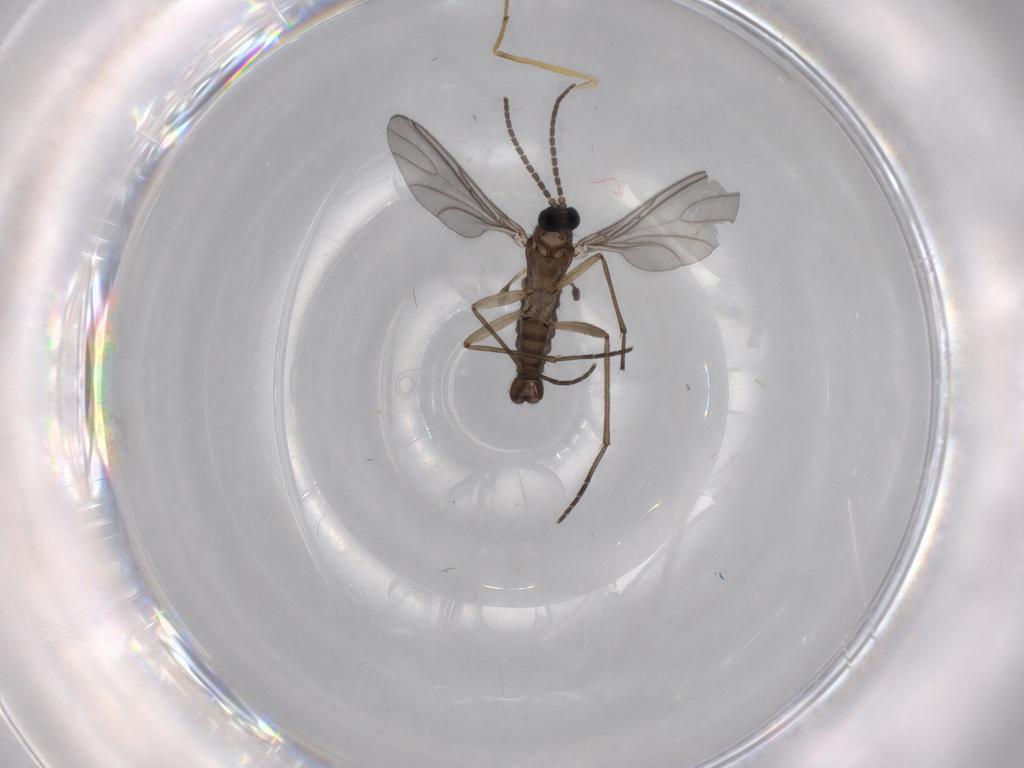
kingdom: Animalia
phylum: Arthropoda
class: Insecta
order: Diptera
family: Sciaridae
